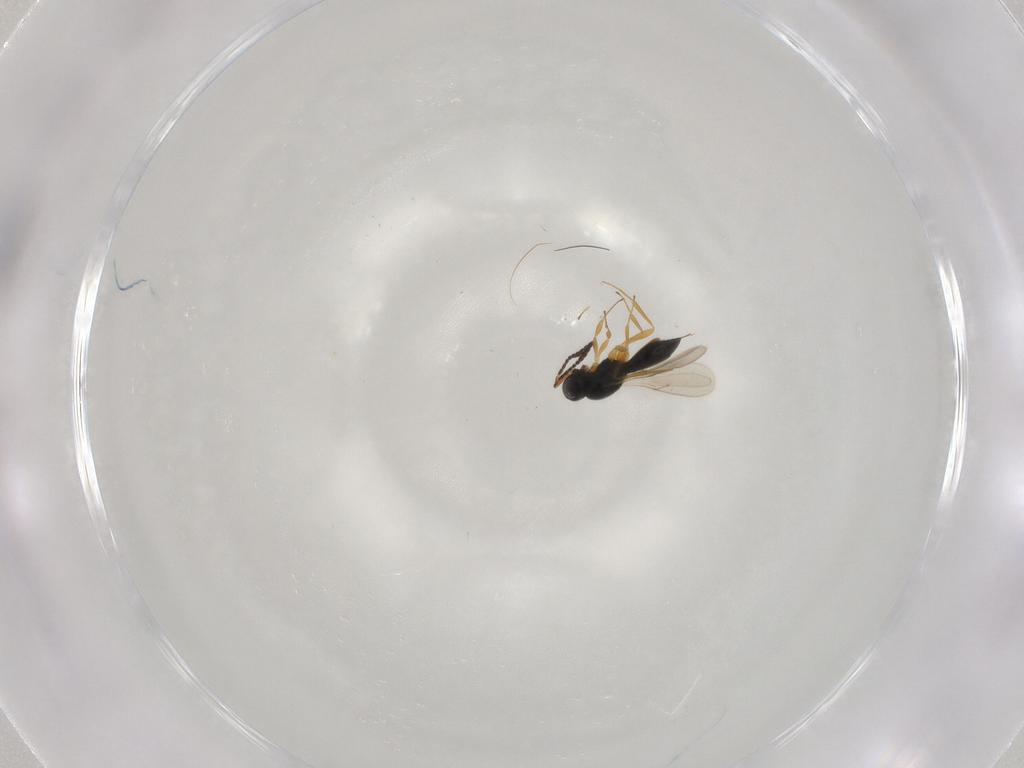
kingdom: Animalia
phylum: Arthropoda
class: Insecta
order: Hymenoptera
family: Scelionidae
